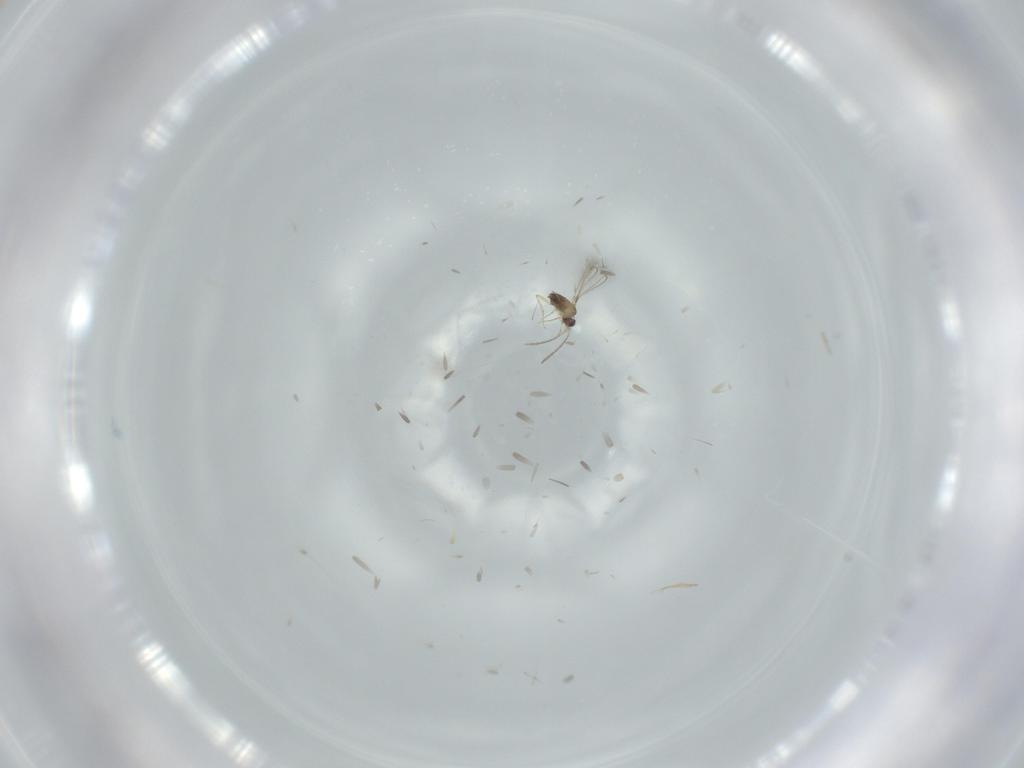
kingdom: Animalia
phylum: Arthropoda
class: Insecta
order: Hymenoptera
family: Mymaridae
